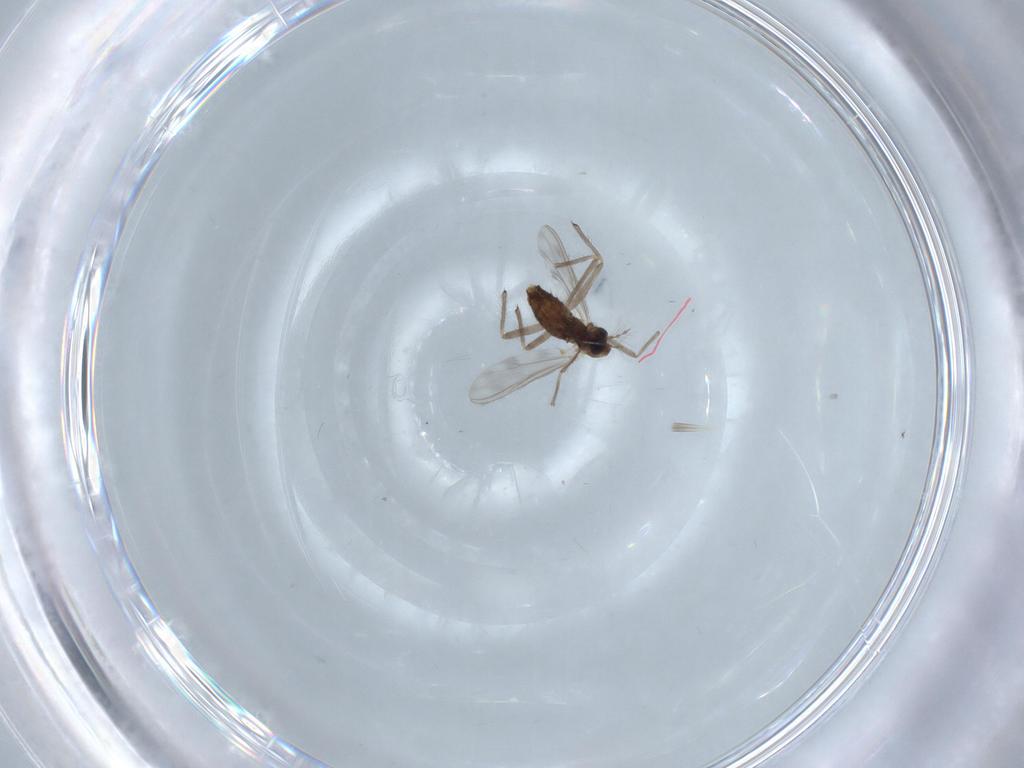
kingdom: Animalia
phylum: Arthropoda
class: Insecta
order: Diptera
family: Chironomidae
